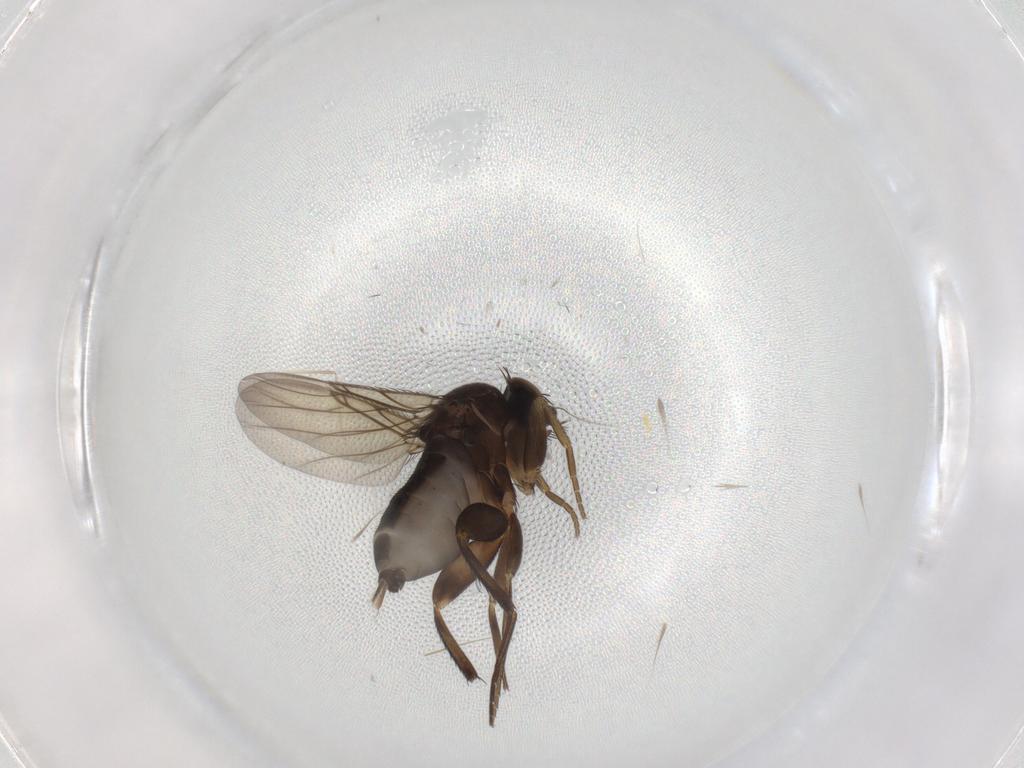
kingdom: Animalia
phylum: Arthropoda
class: Insecta
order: Diptera
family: Phoridae
